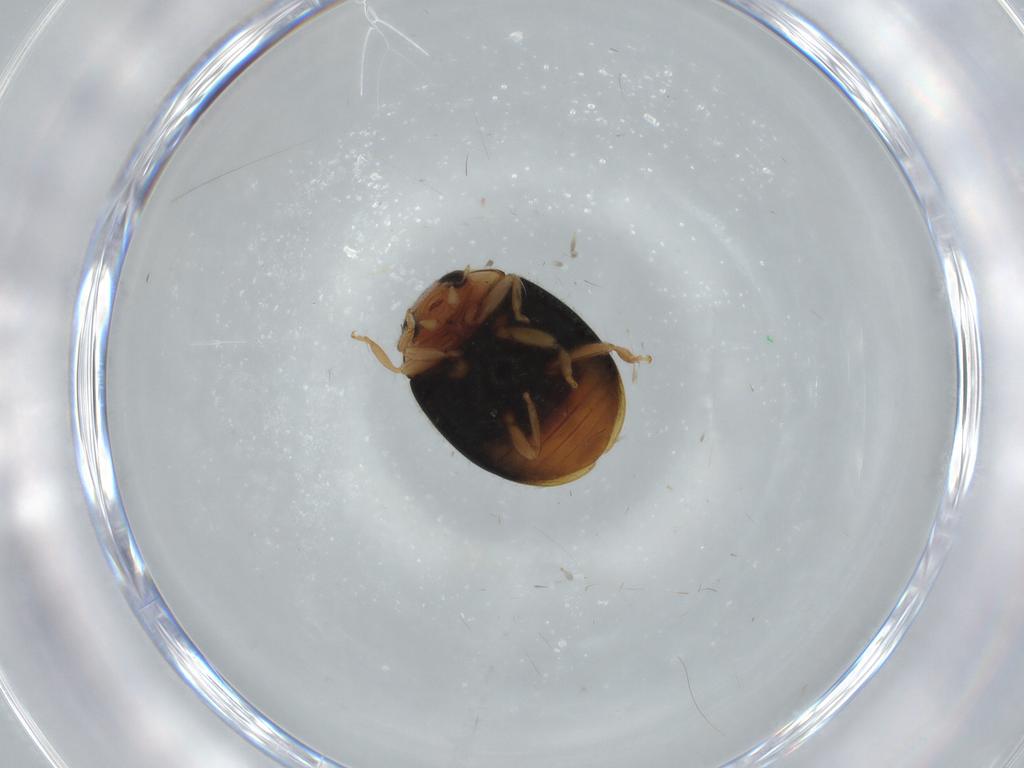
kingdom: Animalia
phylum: Arthropoda
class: Insecta
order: Coleoptera
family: Coccinellidae
